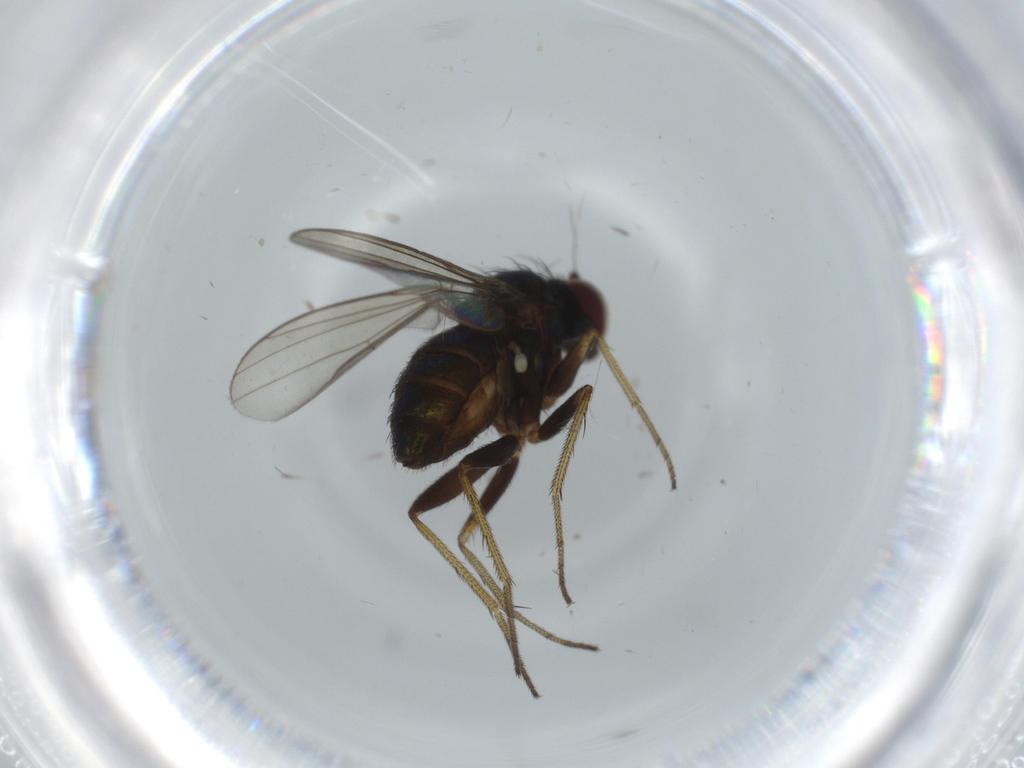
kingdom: Animalia
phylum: Arthropoda
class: Insecta
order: Diptera
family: Dolichopodidae
